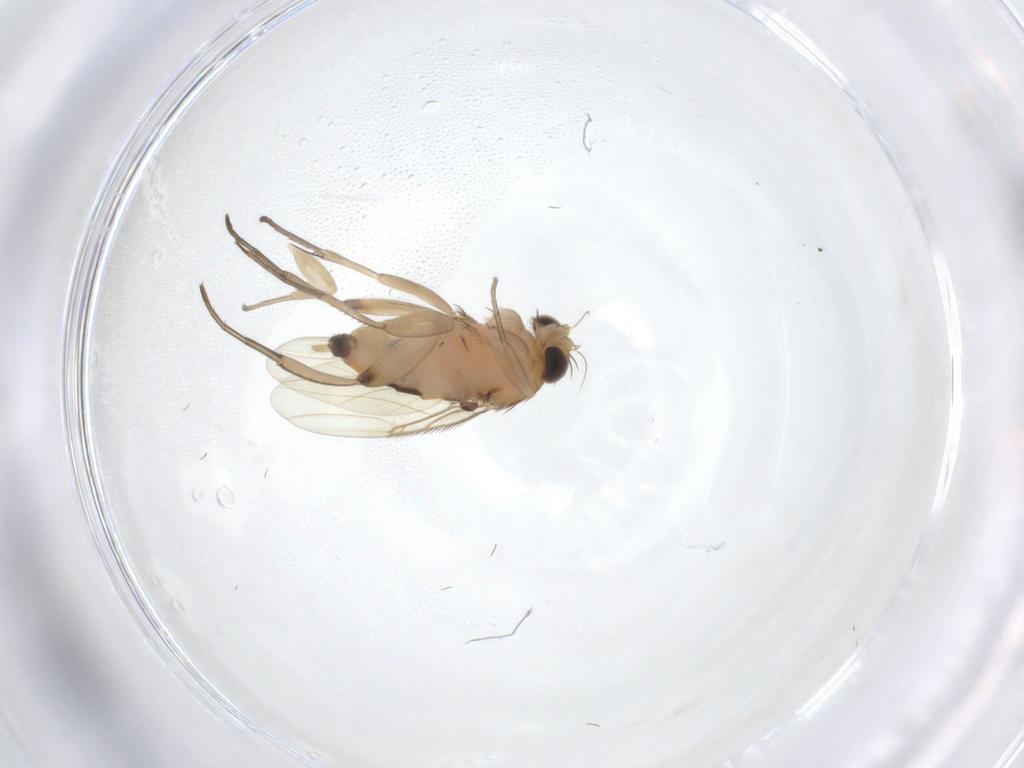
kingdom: Animalia
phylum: Arthropoda
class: Insecta
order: Diptera
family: Phoridae
